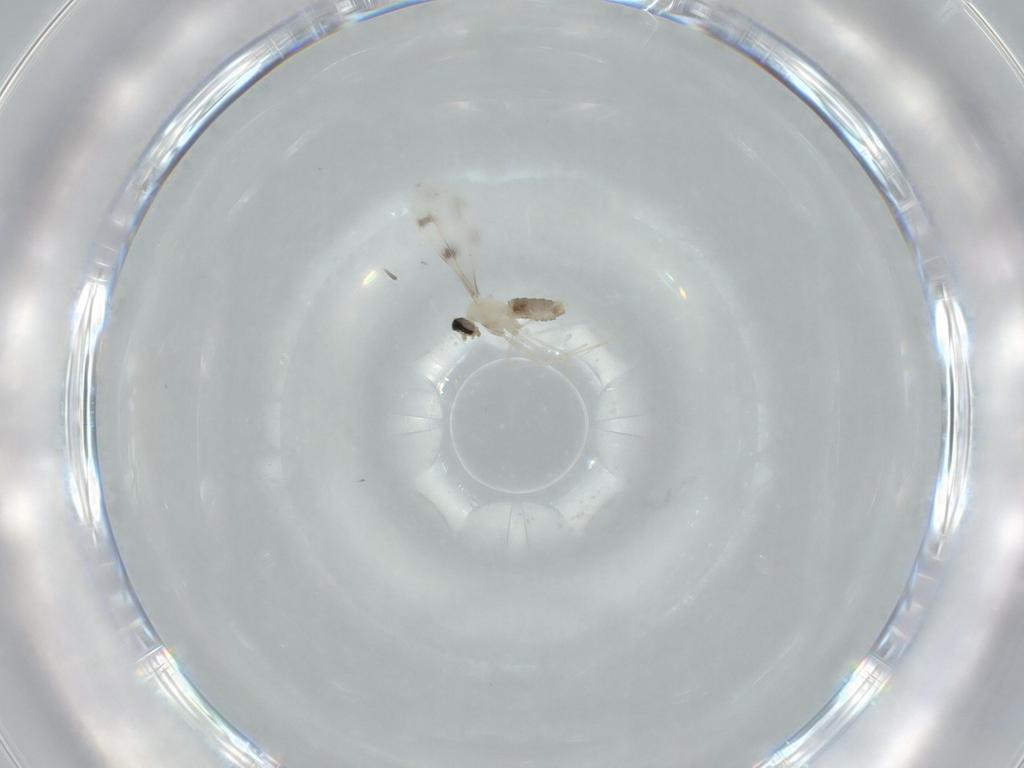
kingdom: Animalia
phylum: Arthropoda
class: Insecta
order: Diptera
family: Cecidomyiidae
